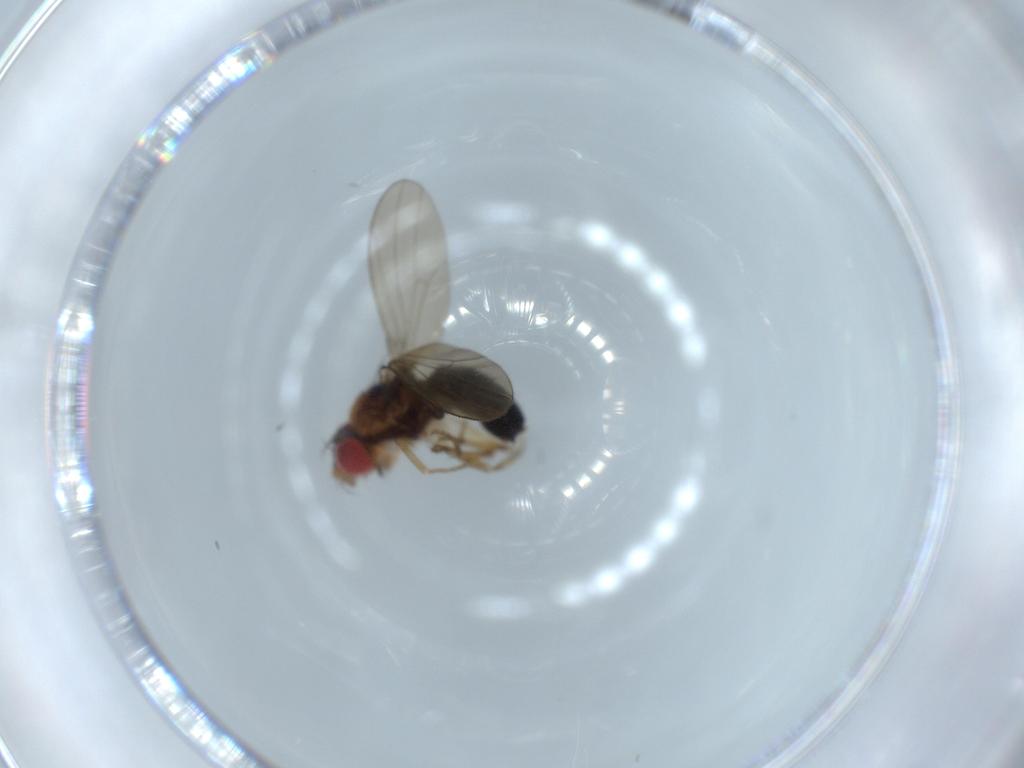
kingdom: Animalia
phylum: Arthropoda
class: Insecta
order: Diptera
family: Drosophilidae
